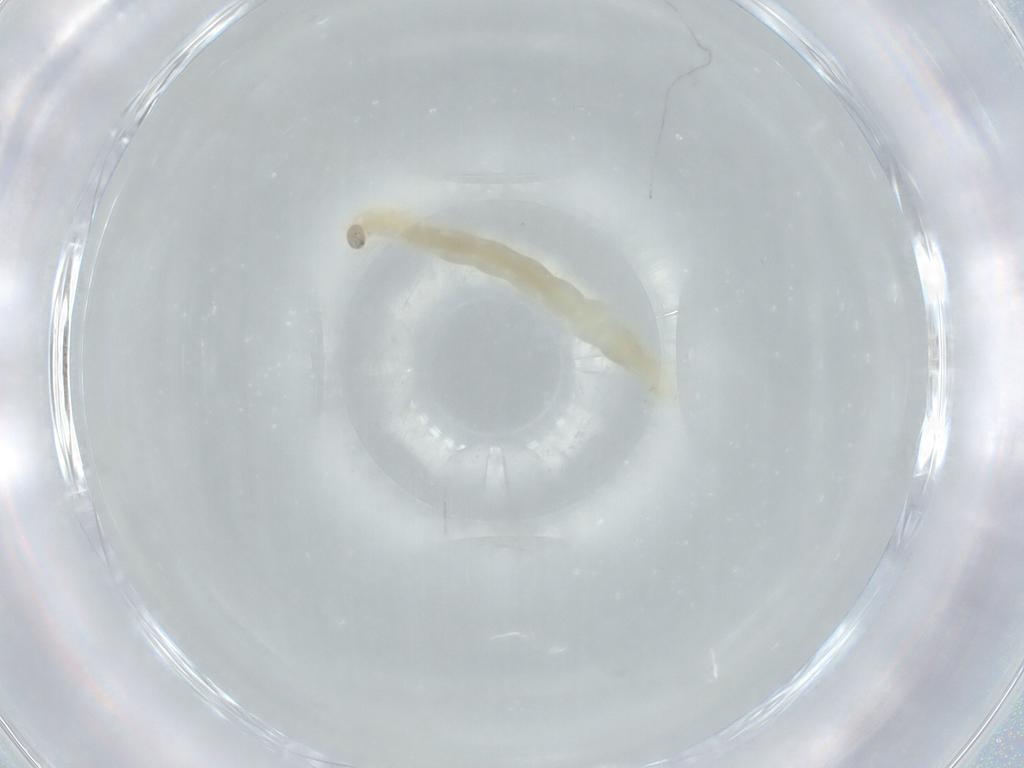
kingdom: Animalia
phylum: Arthropoda
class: Insecta
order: Diptera
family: Chironomidae
